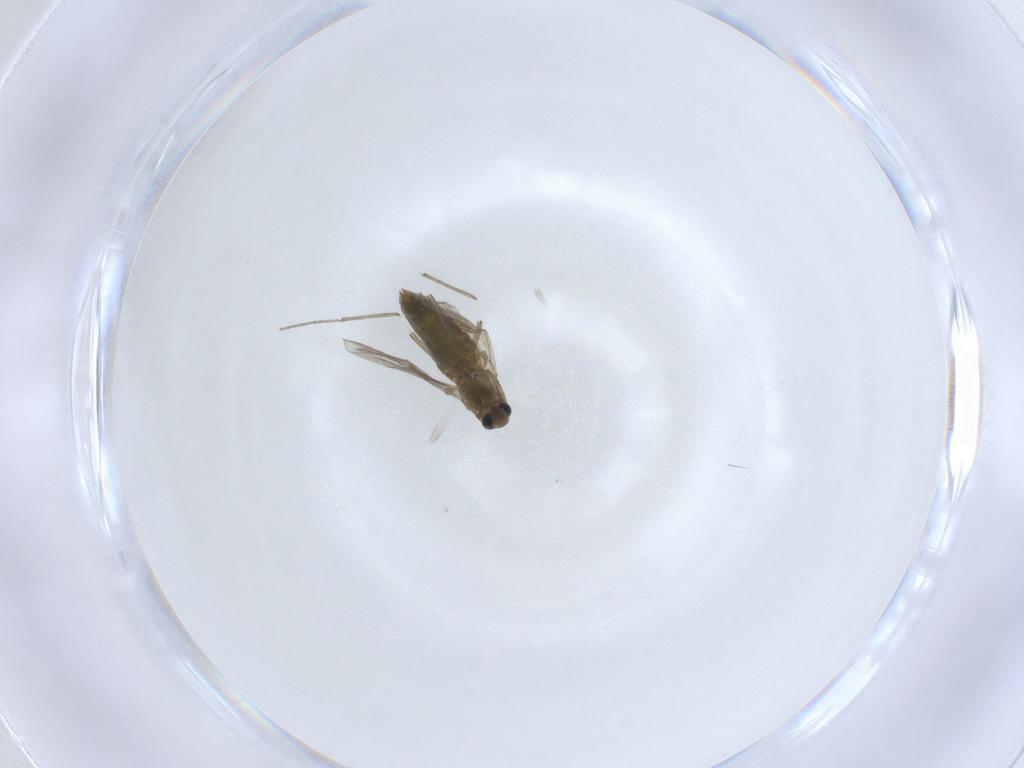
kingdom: Animalia
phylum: Arthropoda
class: Insecta
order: Diptera
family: Chironomidae
